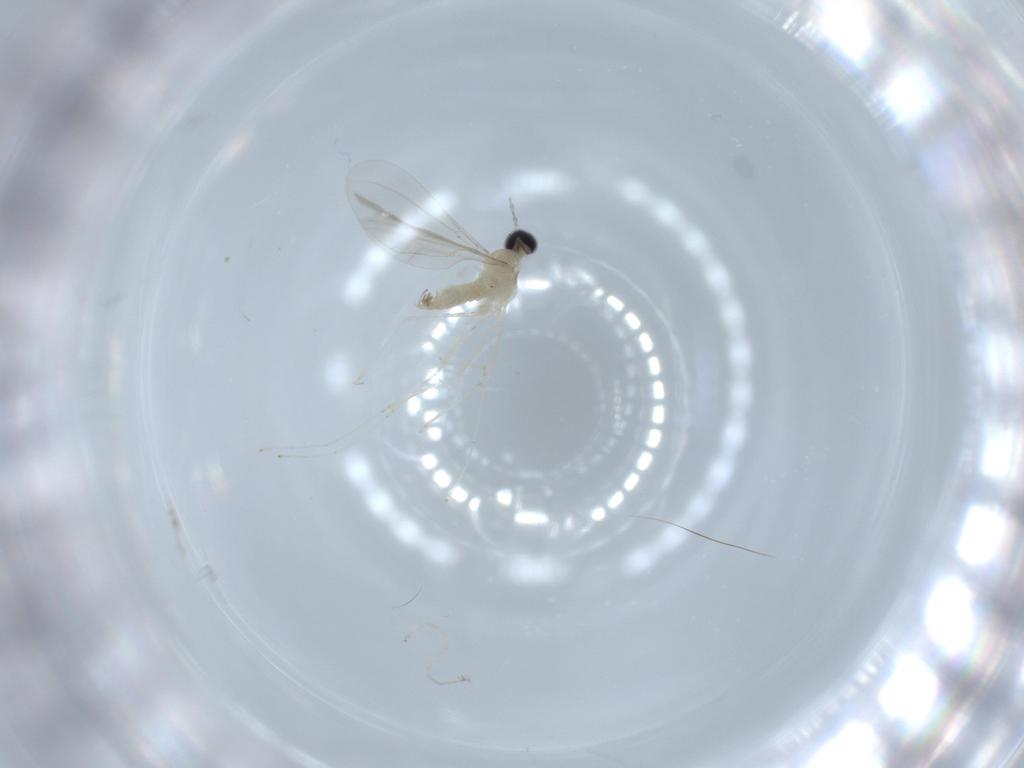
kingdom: Animalia
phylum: Arthropoda
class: Insecta
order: Diptera
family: Cecidomyiidae
